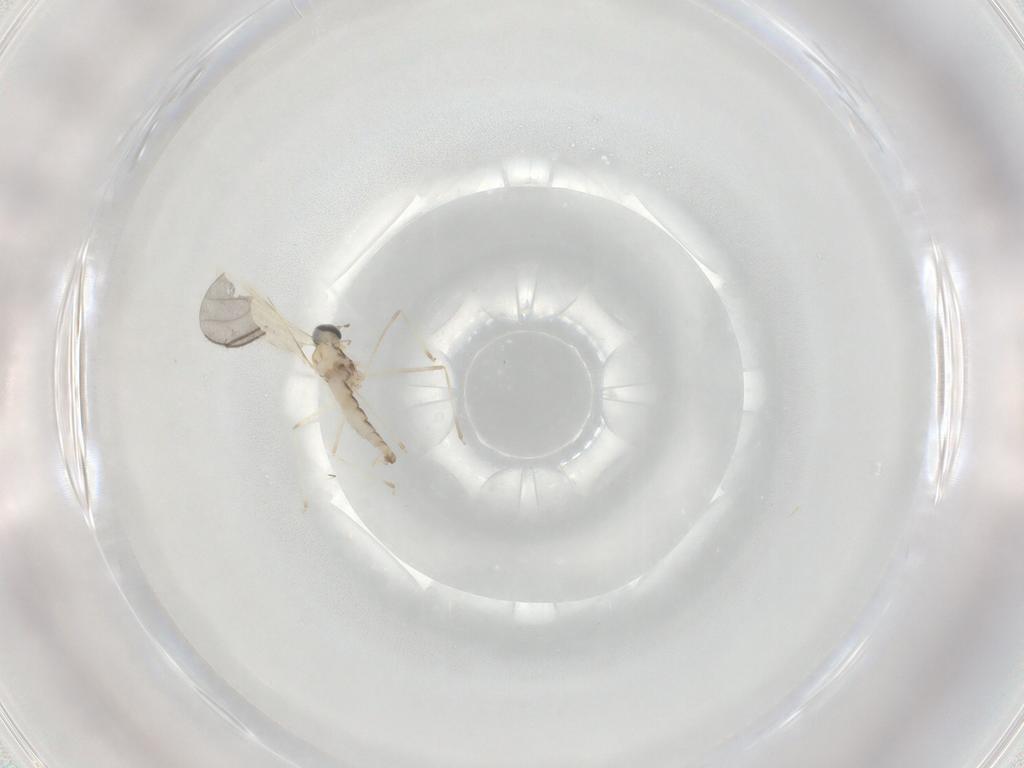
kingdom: Animalia
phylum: Arthropoda
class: Insecta
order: Diptera
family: Cecidomyiidae
